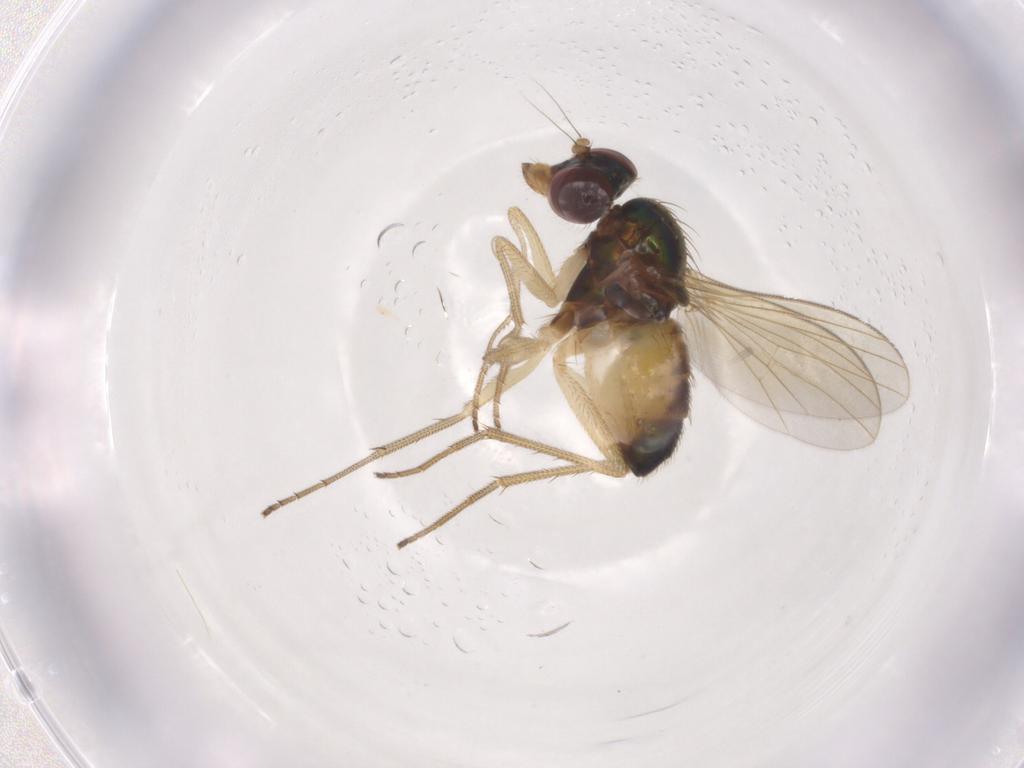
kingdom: Animalia
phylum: Arthropoda
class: Insecta
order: Diptera
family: Dolichopodidae
